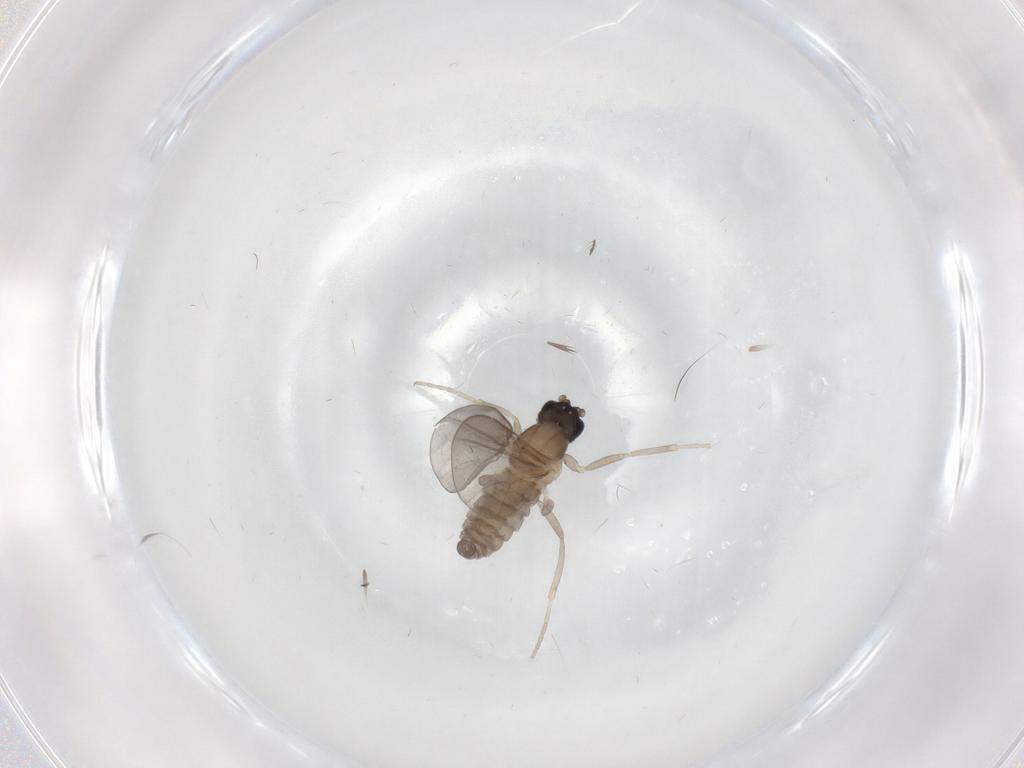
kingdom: Animalia
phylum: Arthropoda
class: Insecta
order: Diptera
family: Cecidomyiidae
